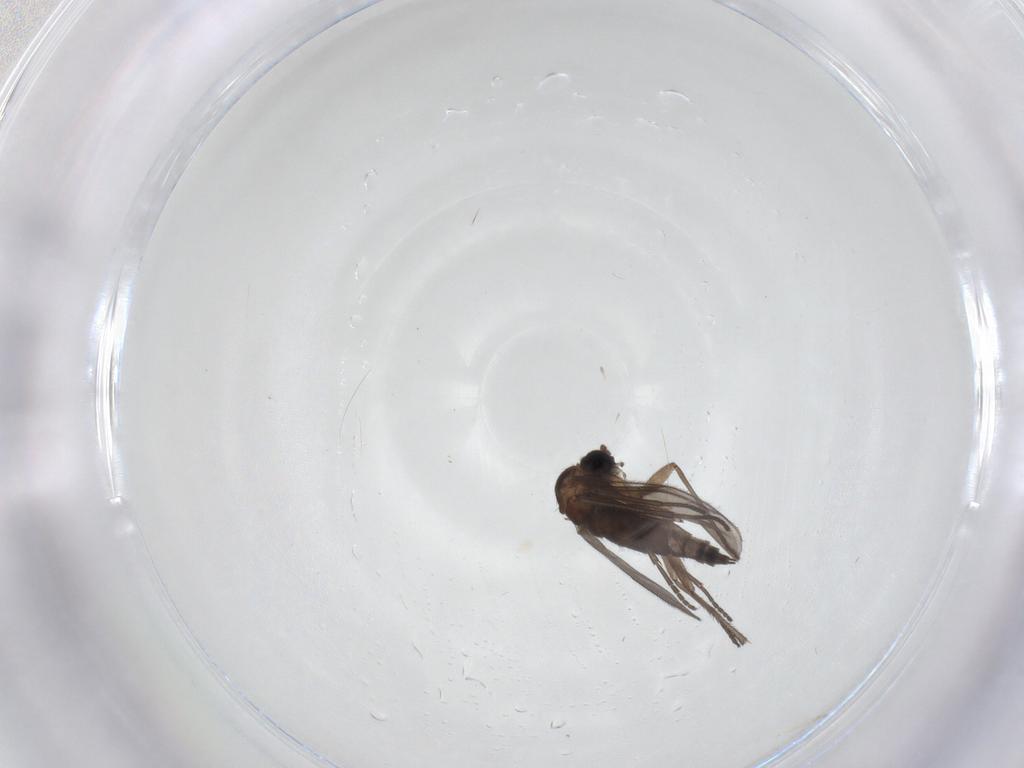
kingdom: Animalia
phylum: Arthropoda
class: Insecta
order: Diptera
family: Sciaridae
